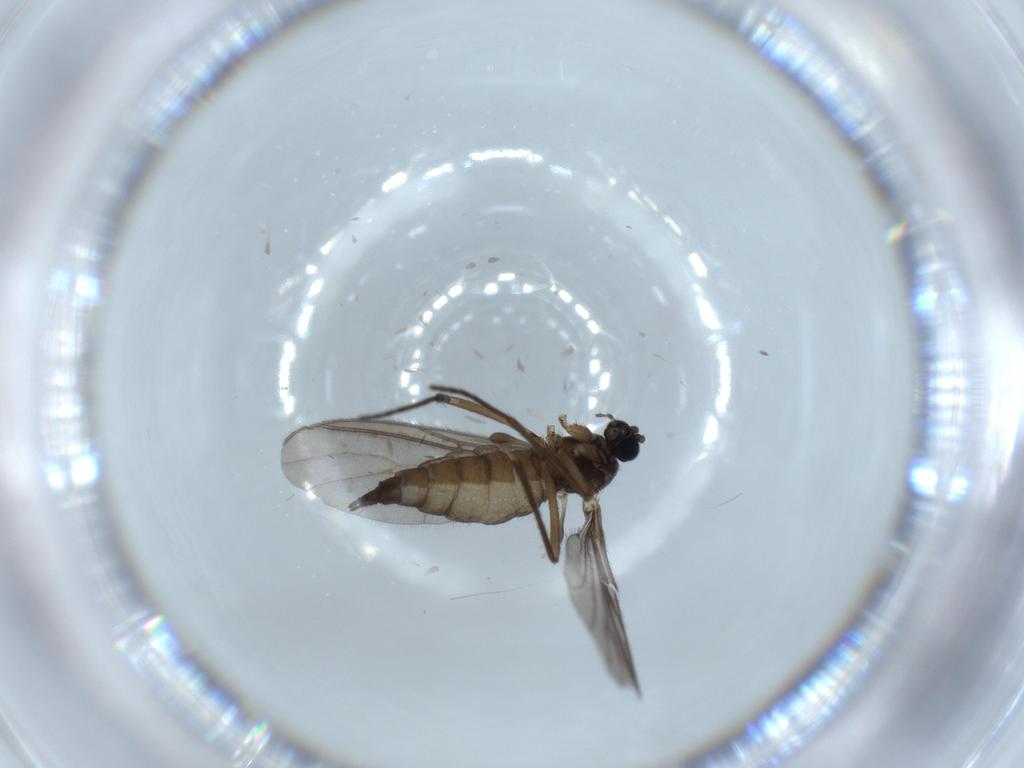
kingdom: Animalia
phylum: Arthropoda
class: Insecta
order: Diptera
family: Sciaridae
